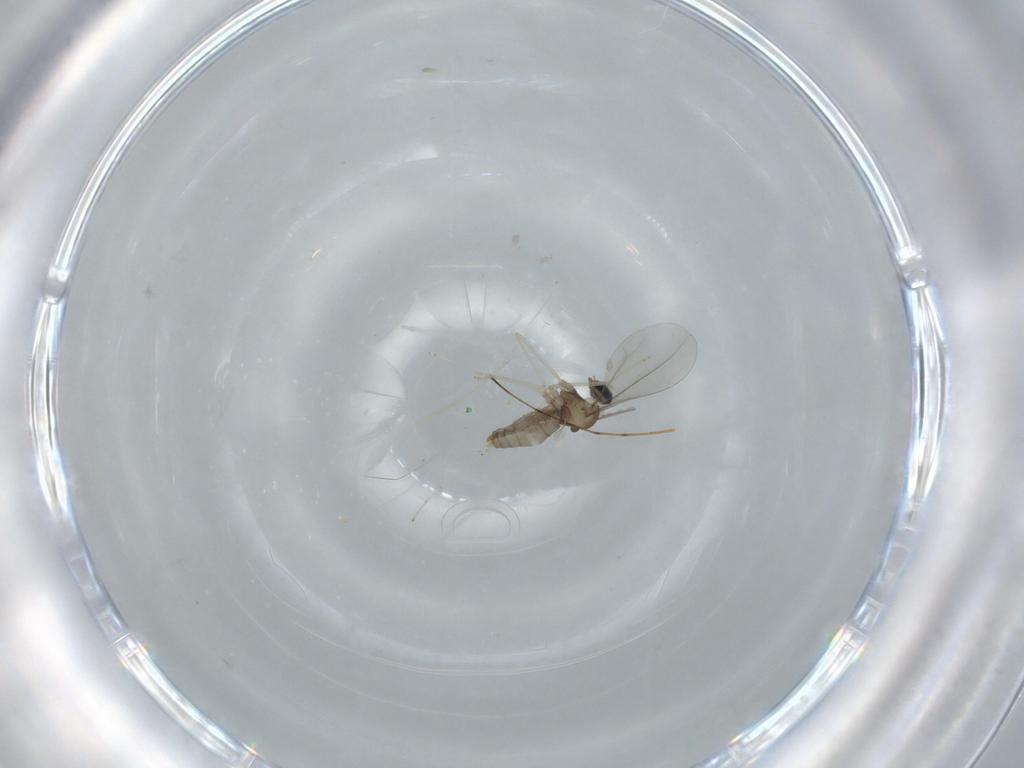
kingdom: Animalia
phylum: Arthropoda
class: Insecta
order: Diptera
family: Cecidomyiidae
